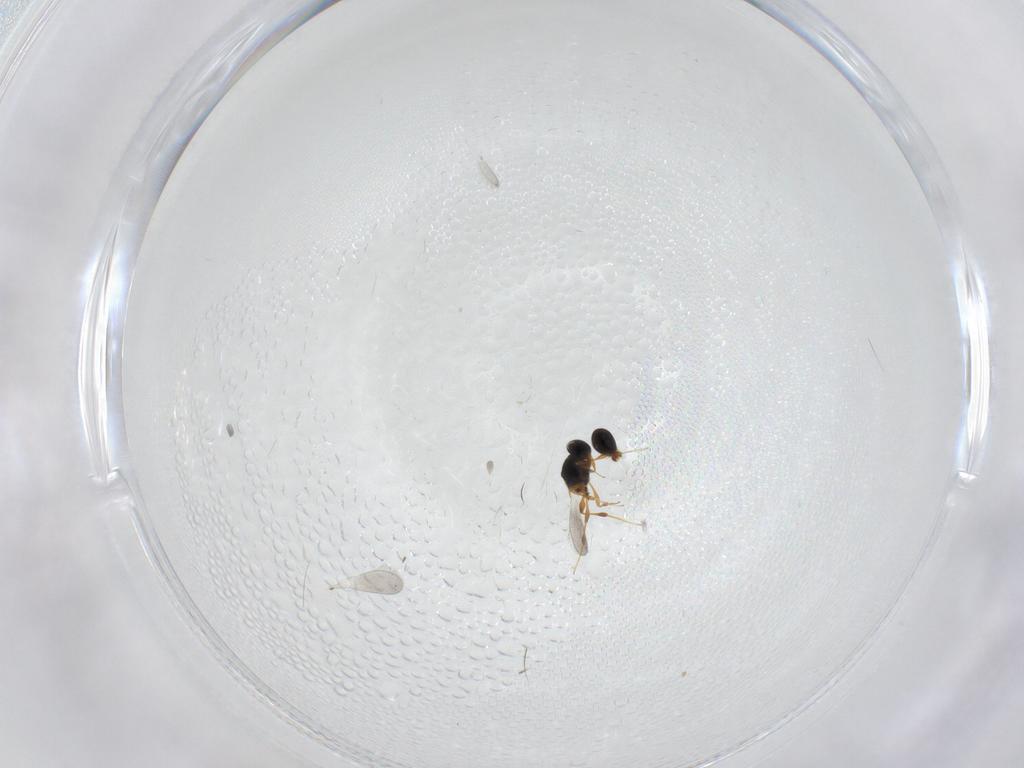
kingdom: Animalia
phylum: Arthropoda
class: Insecta
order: Hymenoptera
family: Platygastridae
